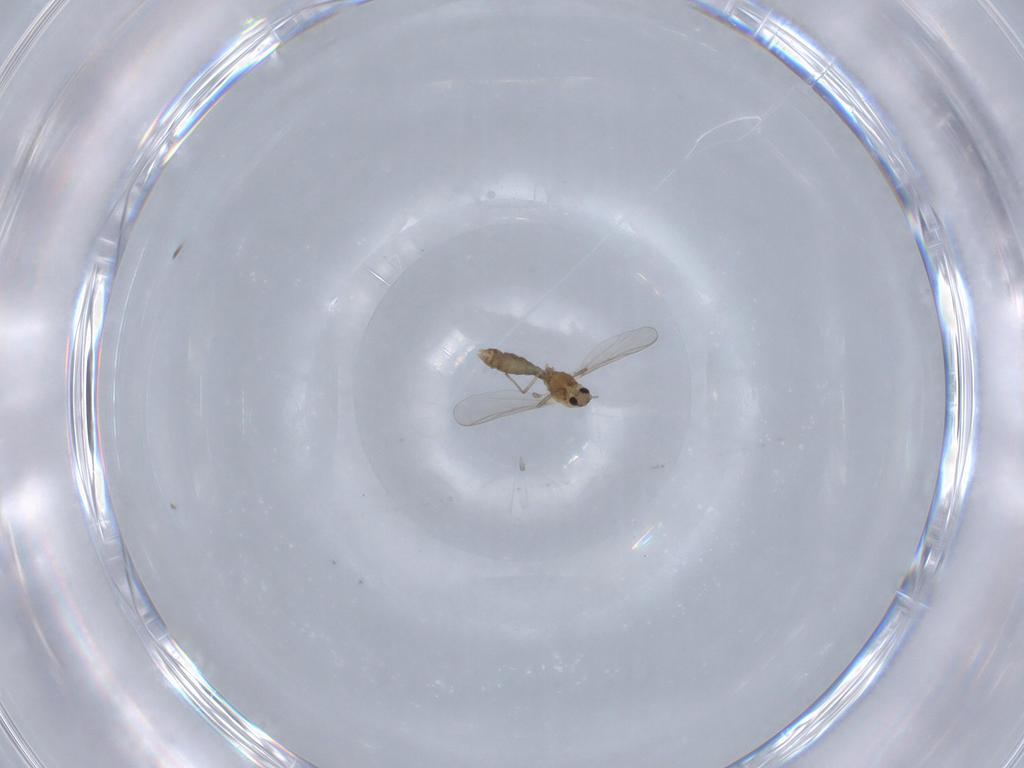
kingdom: Animalia
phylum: Arthropoda
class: Insecta
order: Diptera
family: Chironomidae
